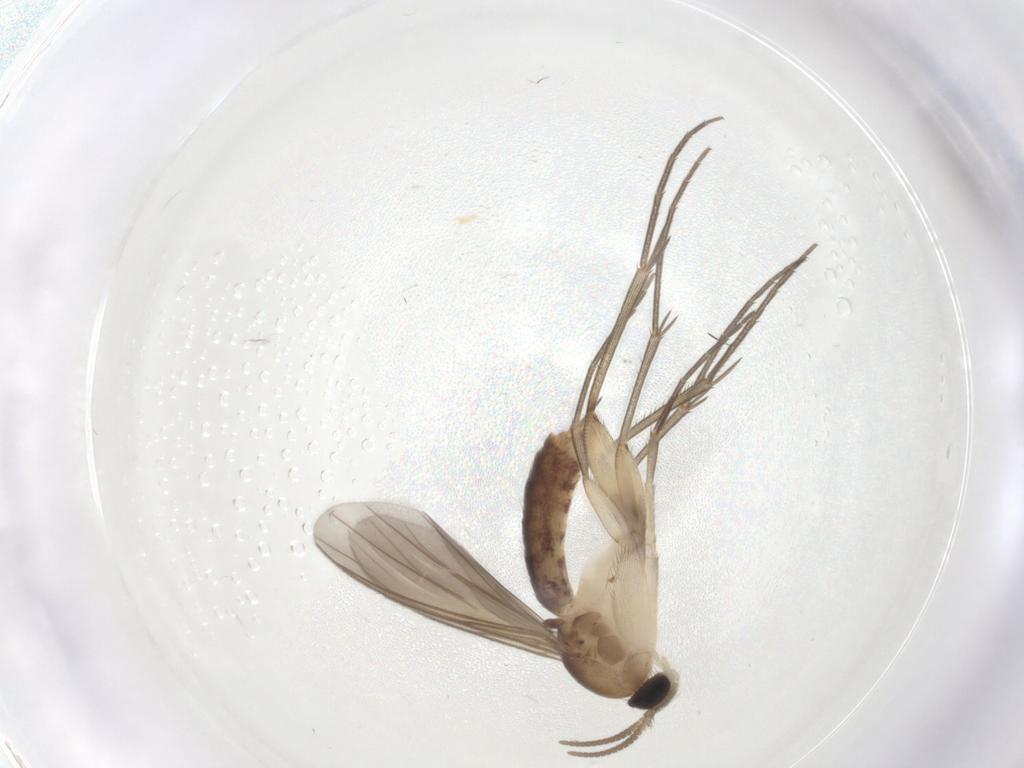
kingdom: Animalia
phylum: Arthropoda
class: Insecta
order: Diptera
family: Mycetophilidae
